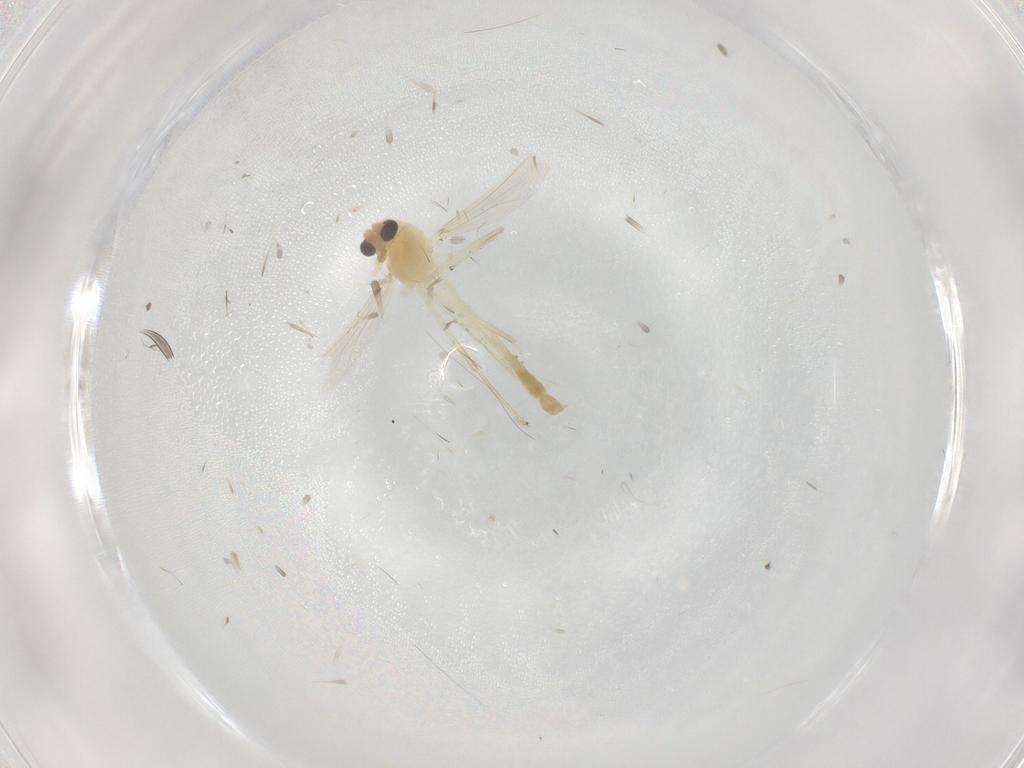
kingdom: Animalia
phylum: Arthropoda
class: Insecta
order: Diptera
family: Chironomidae
